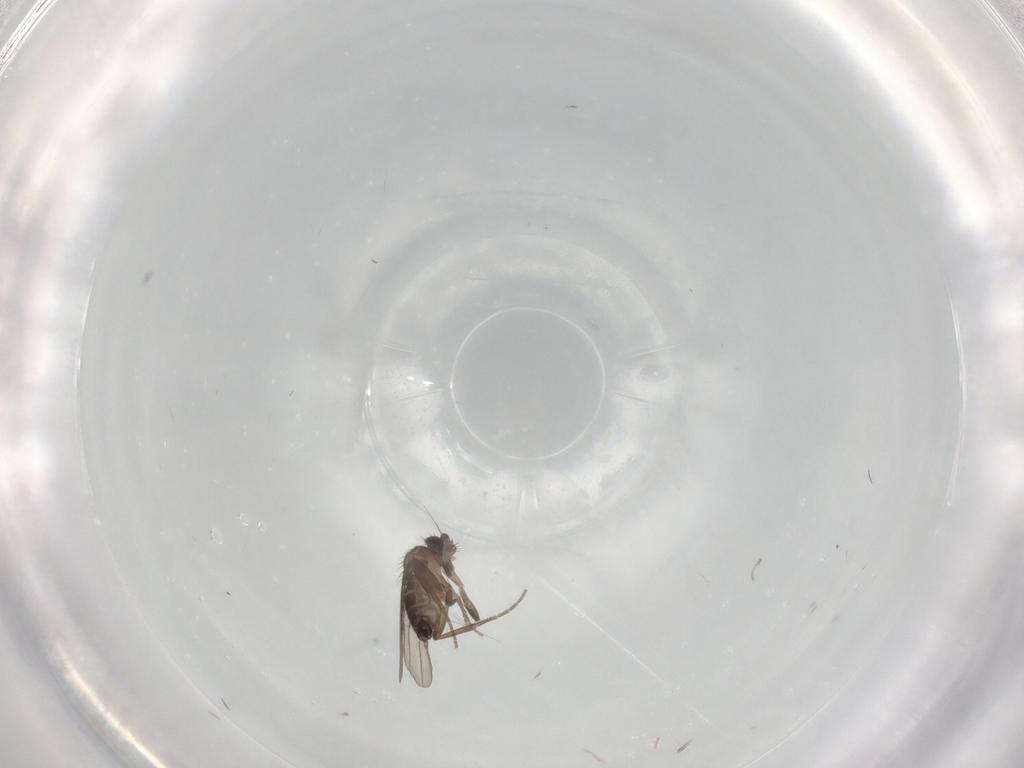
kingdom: Animalia
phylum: Arthropoda
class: Insecta
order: Diptera
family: Phoridae
